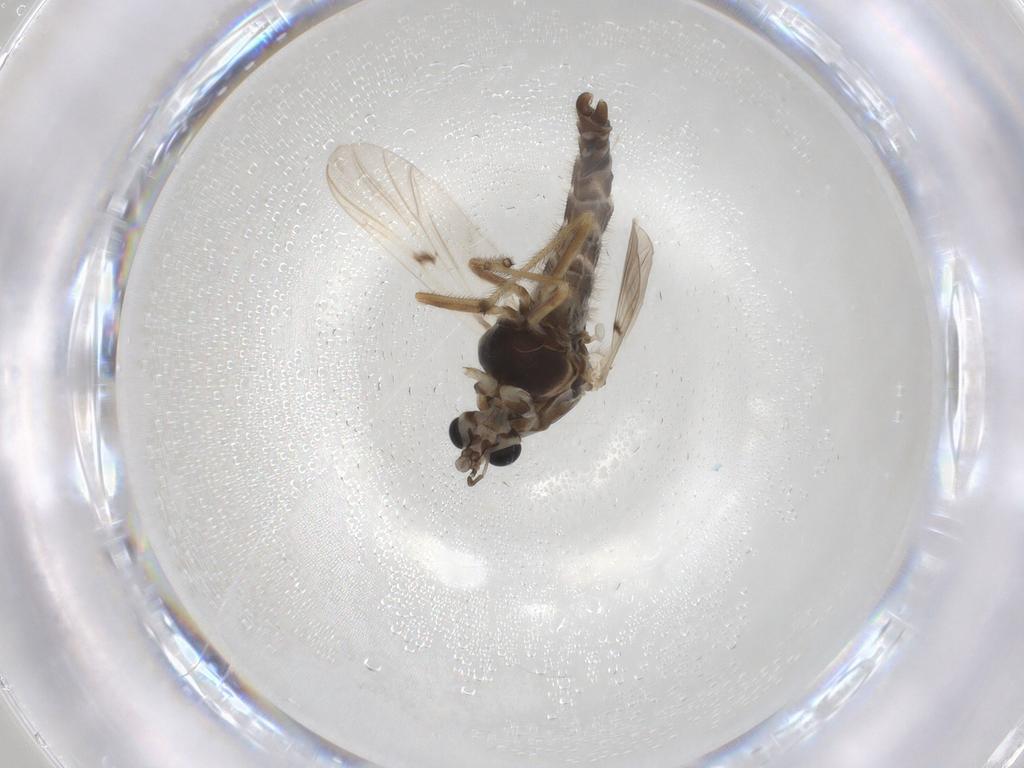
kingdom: Animalia
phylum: Arthropoda
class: Insecta
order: Diptera
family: Chironomidae
